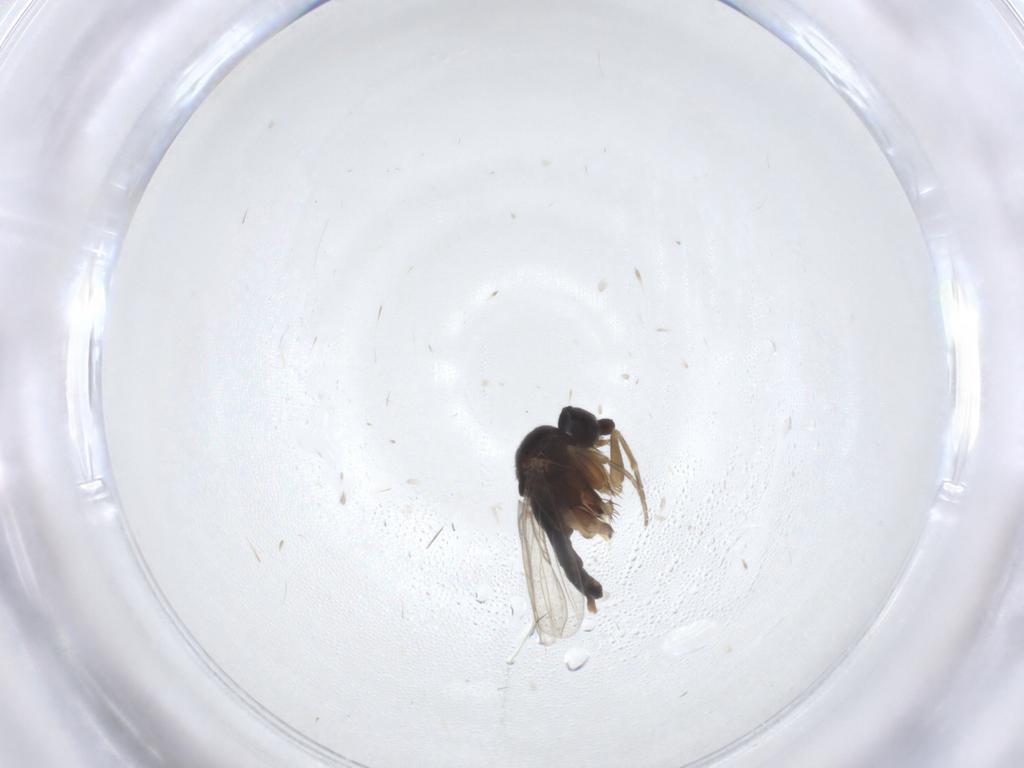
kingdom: Animalia
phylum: Arthropoda
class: Insecta
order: Diptera
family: Phoridae
